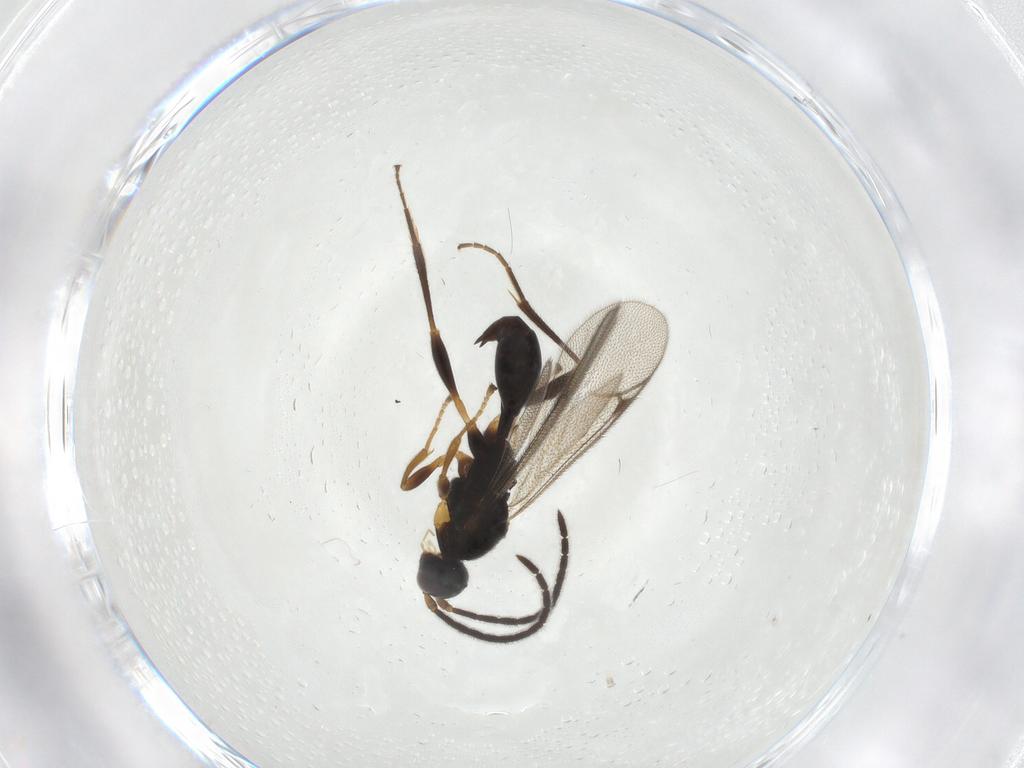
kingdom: Animalia
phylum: Arthropoda
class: Insecta
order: Hymenoptera
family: Proctotrupidae
